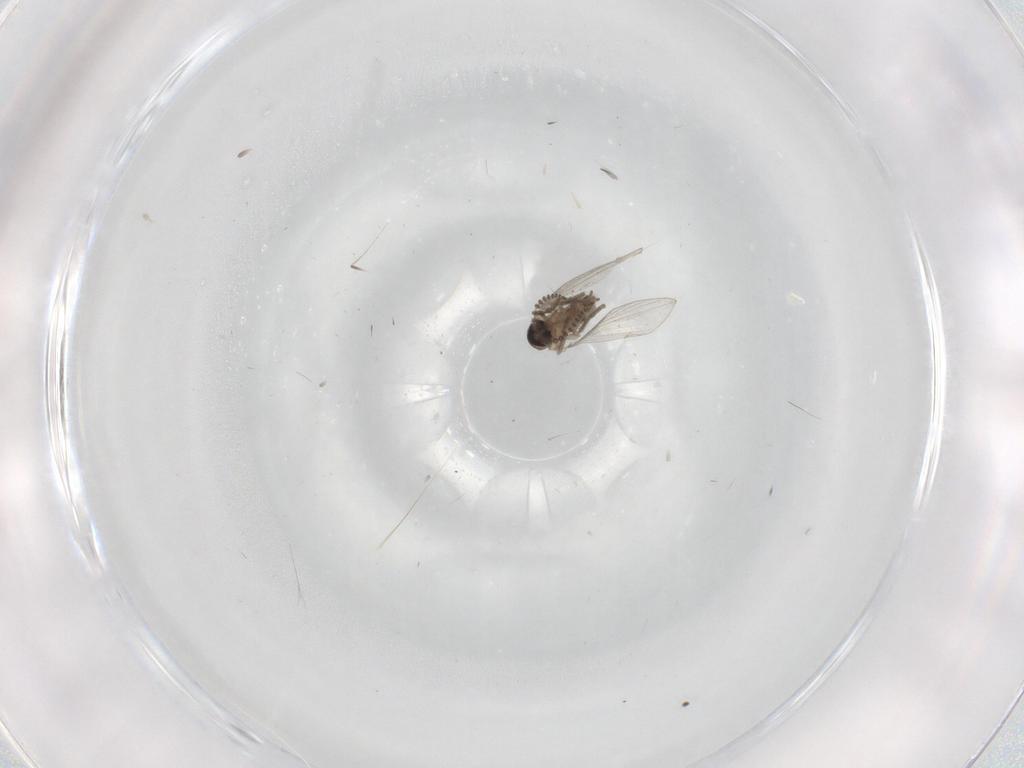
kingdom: Animalia
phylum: Arthropoda
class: Insecta
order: Diptera
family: Psychodidae
